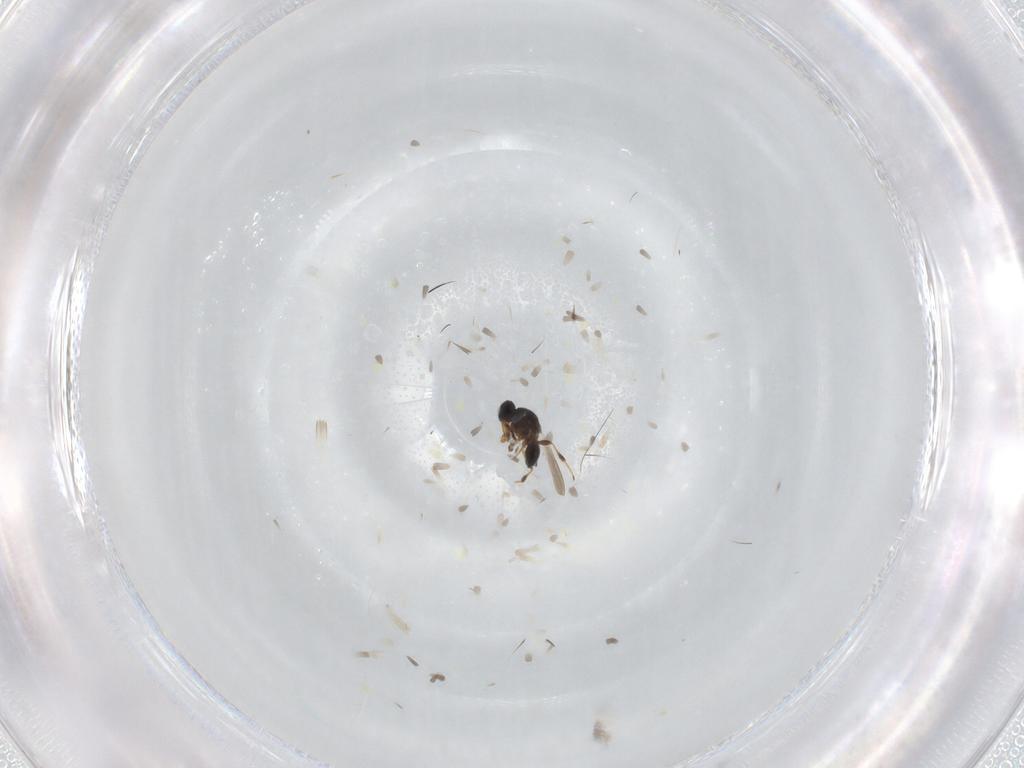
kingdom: Animalia
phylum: Arthropoda
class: Insecta
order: Hymenoptera
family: Platygastridae
